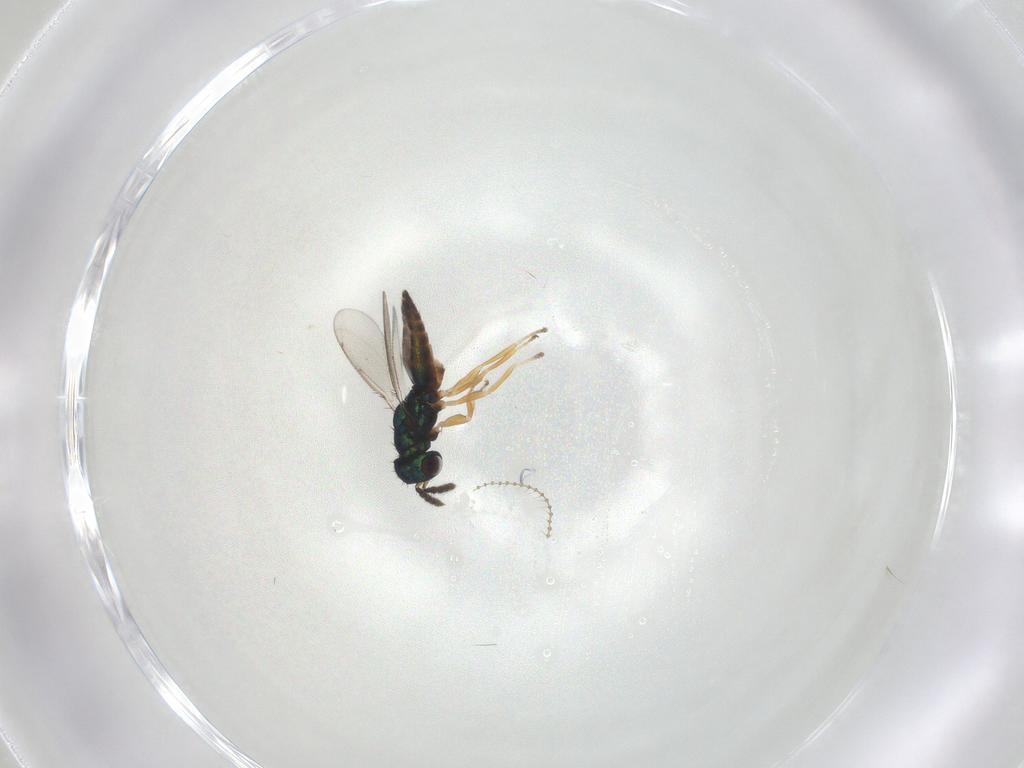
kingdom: Animalia
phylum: Arthropoda
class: Insecta
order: Hymenoptera
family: Eulophidae
